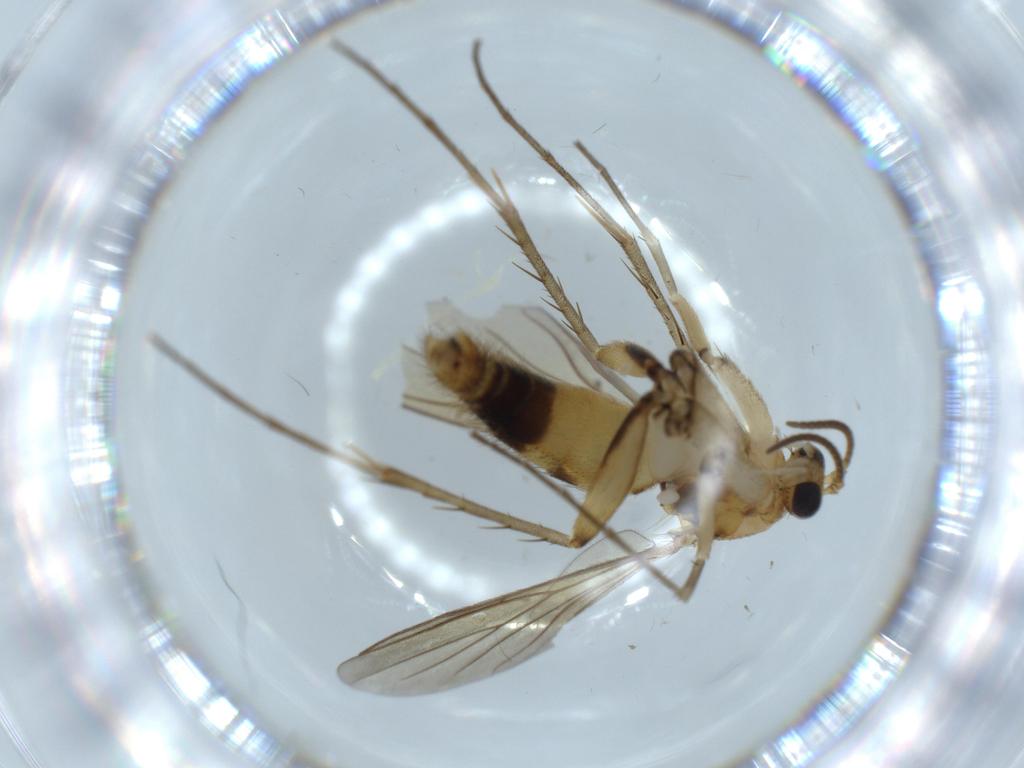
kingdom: Animalia
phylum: Arthropoda
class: Insecta
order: Diptera
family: Mycetophilidae
